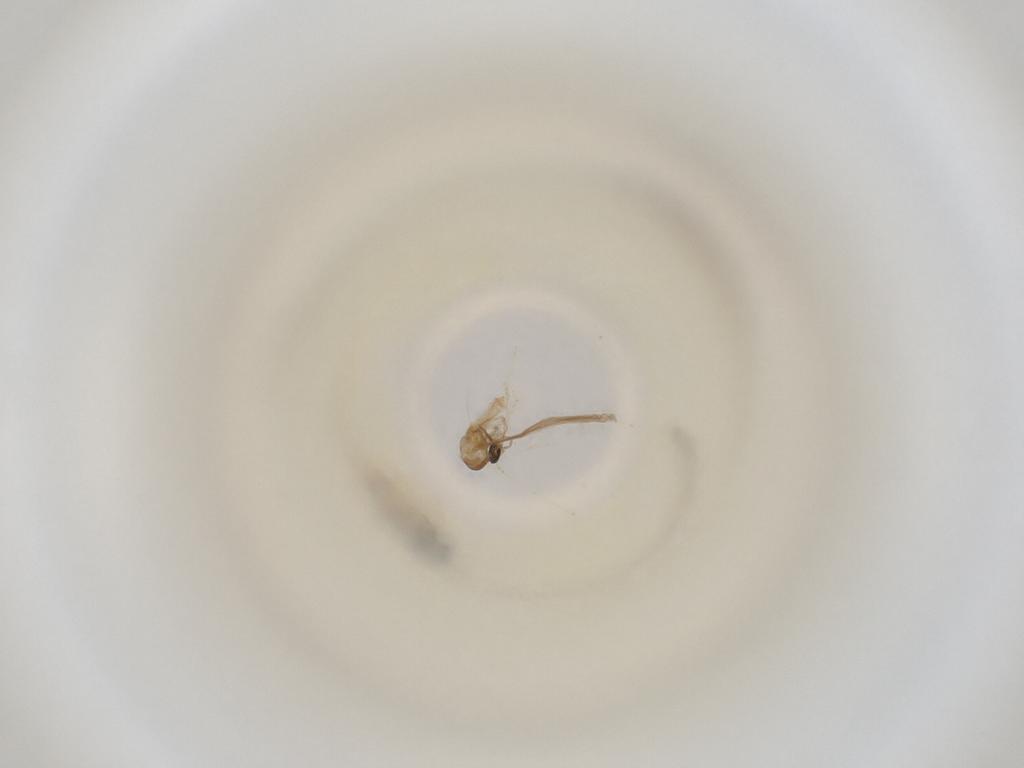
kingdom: Animalia
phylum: Arthropoda
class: Insecta
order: Diptera
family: Cecidomyiidae
